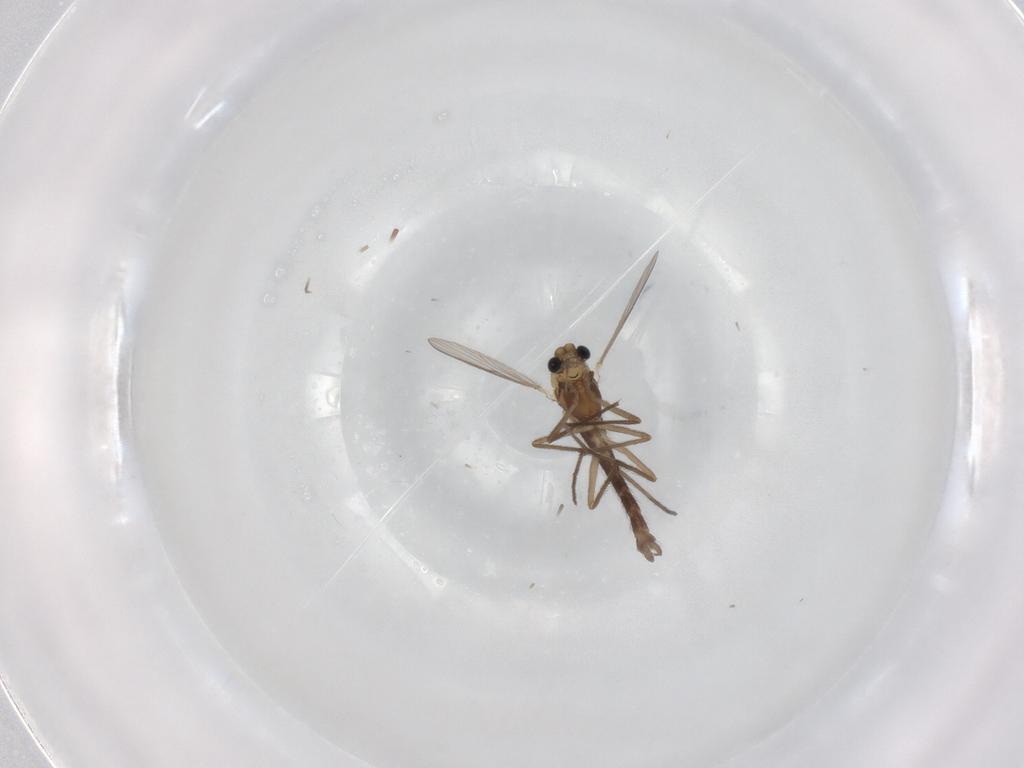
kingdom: Animalia
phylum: Arthropoda
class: Insecta
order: Diptera
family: Chironomidae
